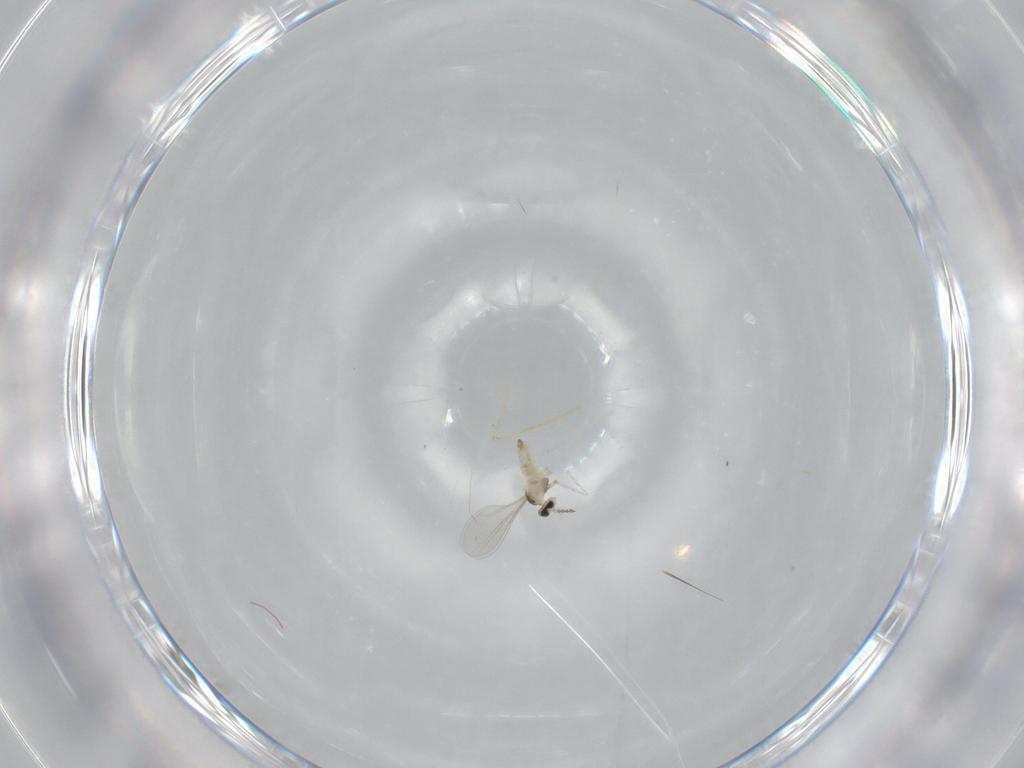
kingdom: Animalia
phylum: Arthropoda
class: Insecta
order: Diptera
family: Cecidomyiidae
